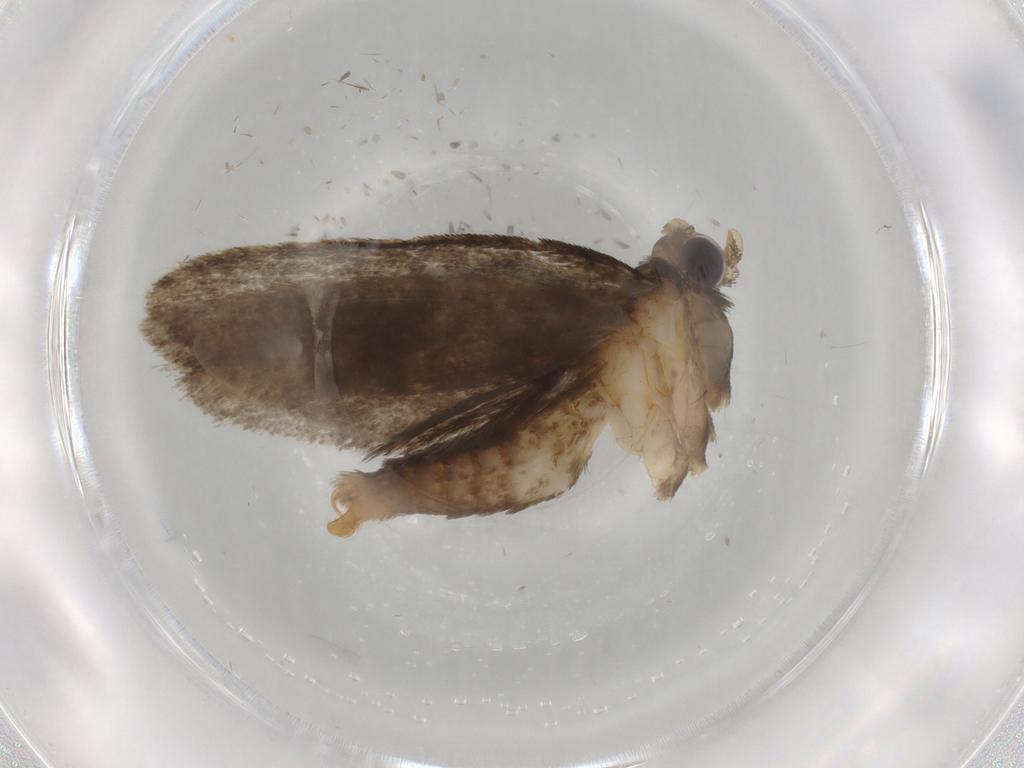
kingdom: Animalia
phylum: Arthropoda
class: Insecta
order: Lepidoptera
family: Tineidae
